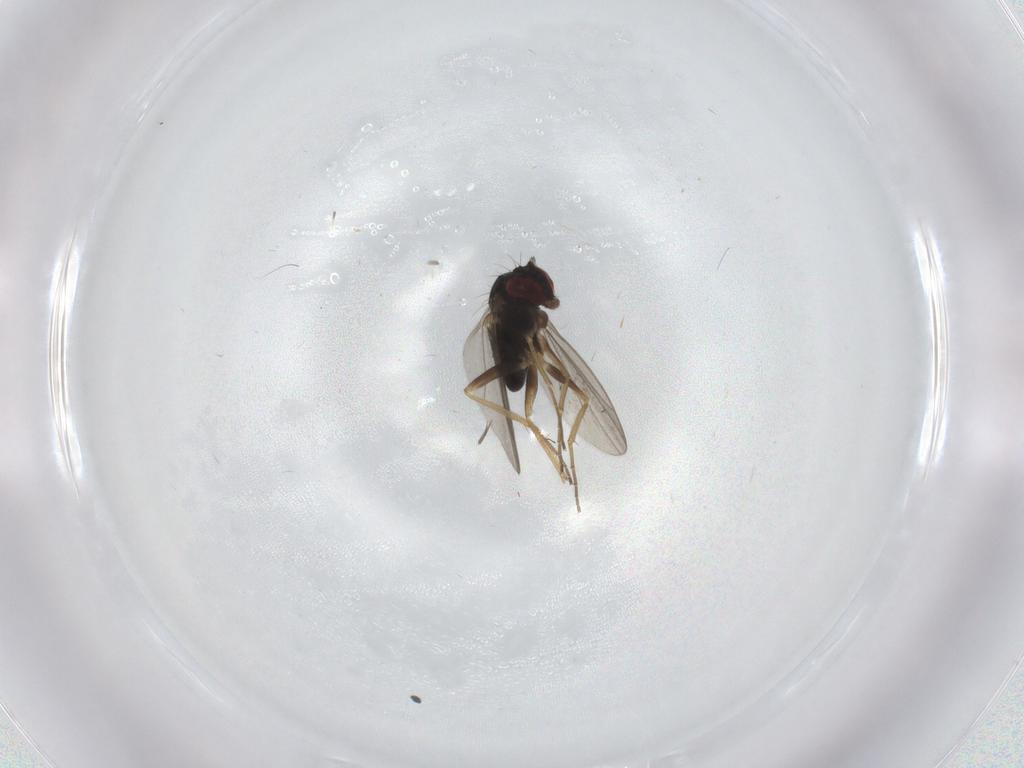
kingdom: Animalia
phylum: Arthropoda
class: Insecta
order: Diptera
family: Dolichopodidae
